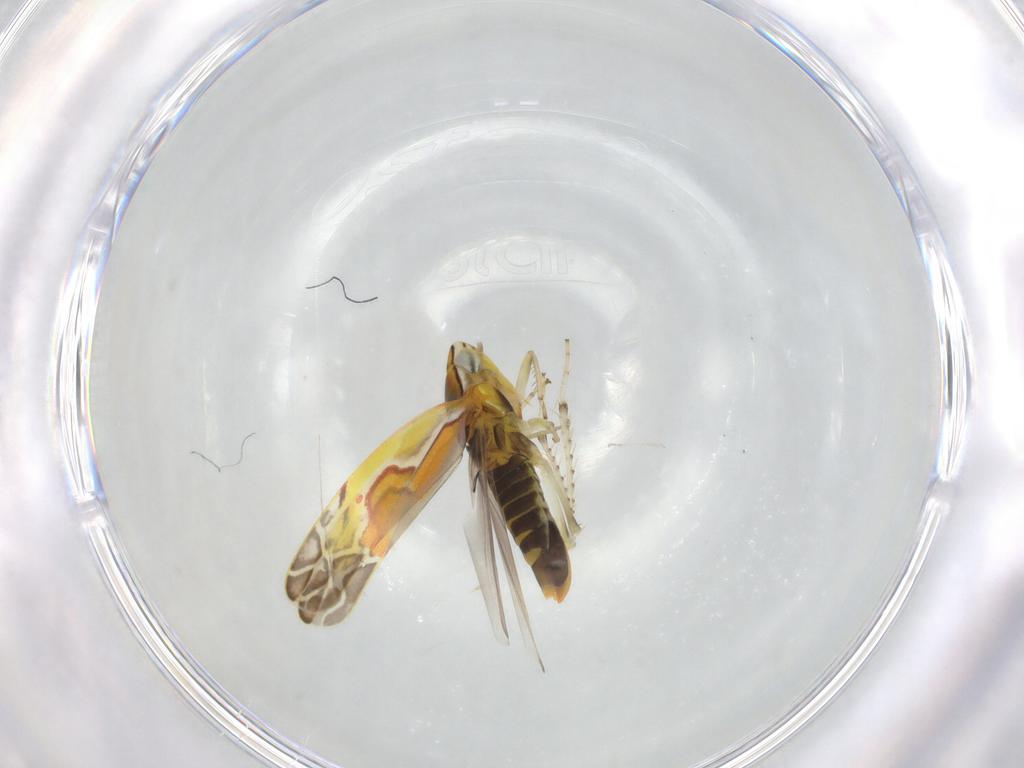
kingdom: Animalia
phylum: Arthropoda
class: Insecta
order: Hemiptera
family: Cicadellidae
